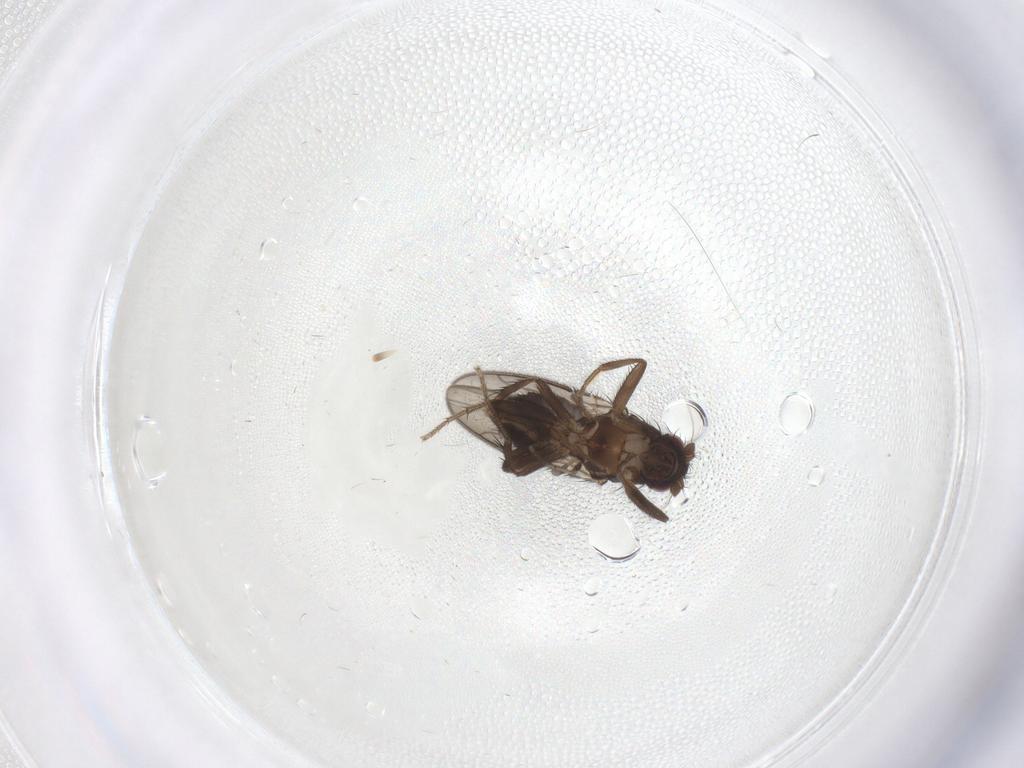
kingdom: Animalia
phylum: Arthropoda
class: Insecta
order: Diptera
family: Sphaeroceridae
